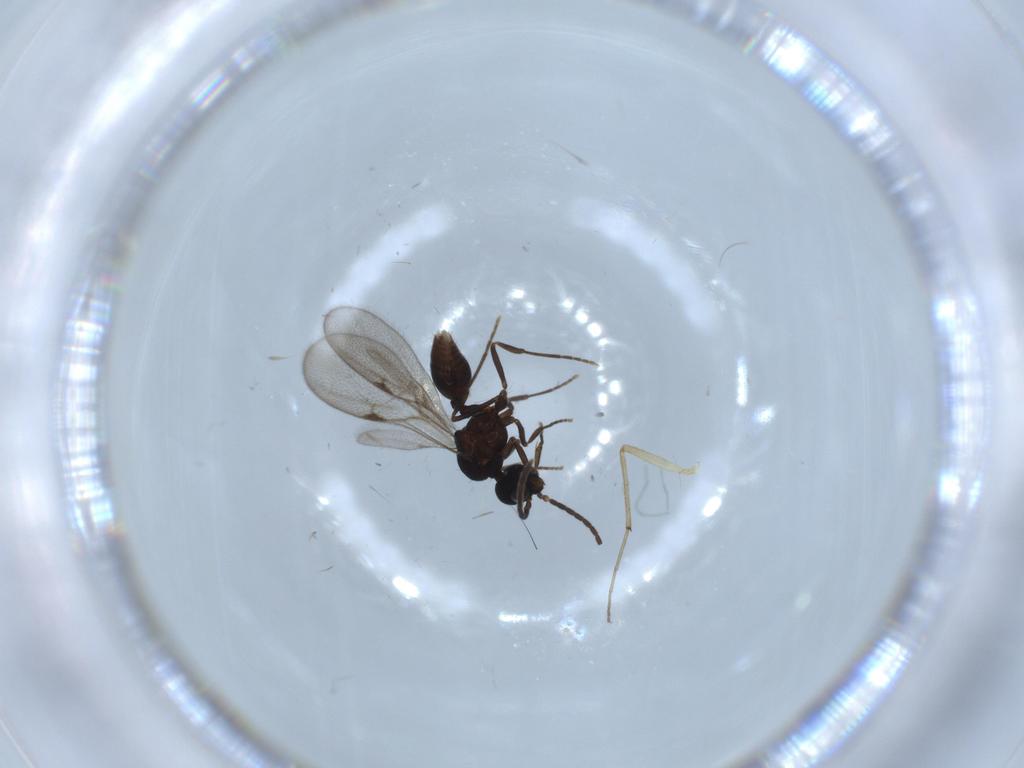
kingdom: Animalia
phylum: Arthropoda
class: Insecta
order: Hymenoptera
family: Formicidae
